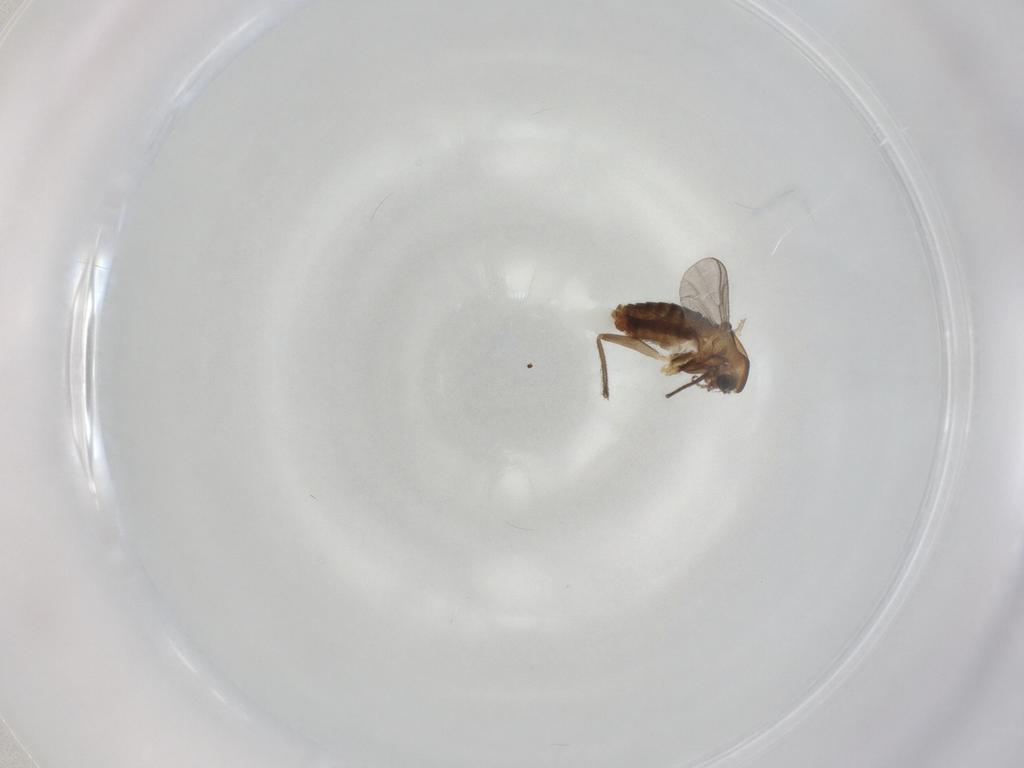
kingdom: Animalia
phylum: Arthropoda
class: Insecta
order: Diptera
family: Chironomidae
